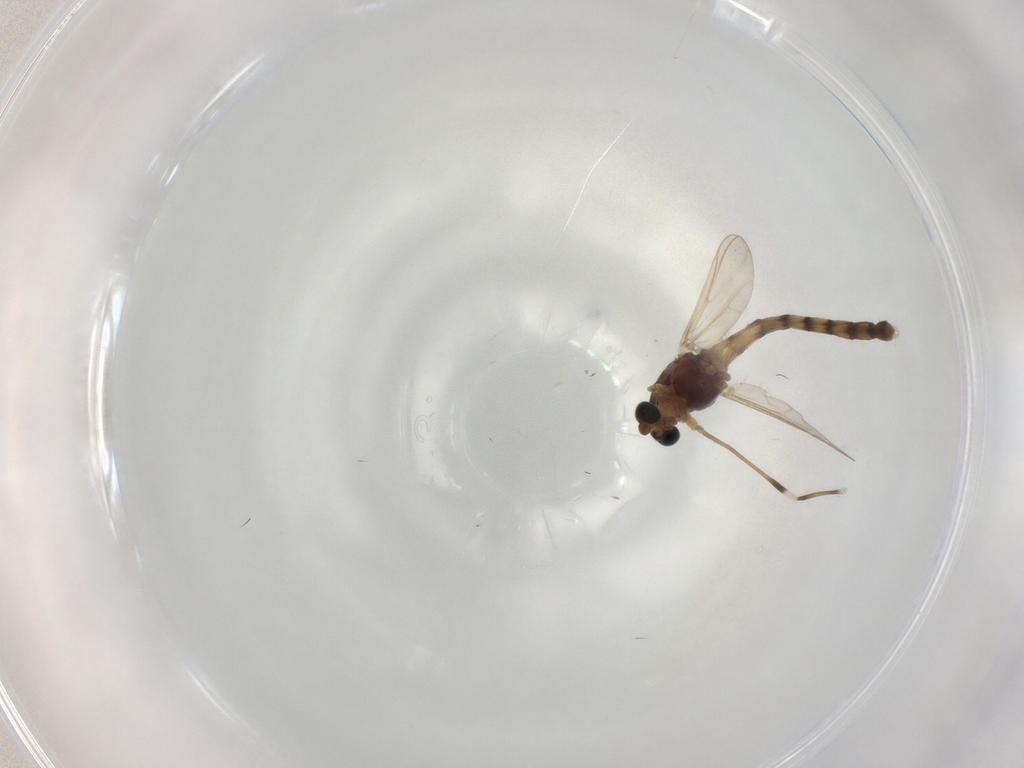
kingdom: Animalia
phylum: Arthropoda
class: Insecta
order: Diptera
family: Chironomidae
